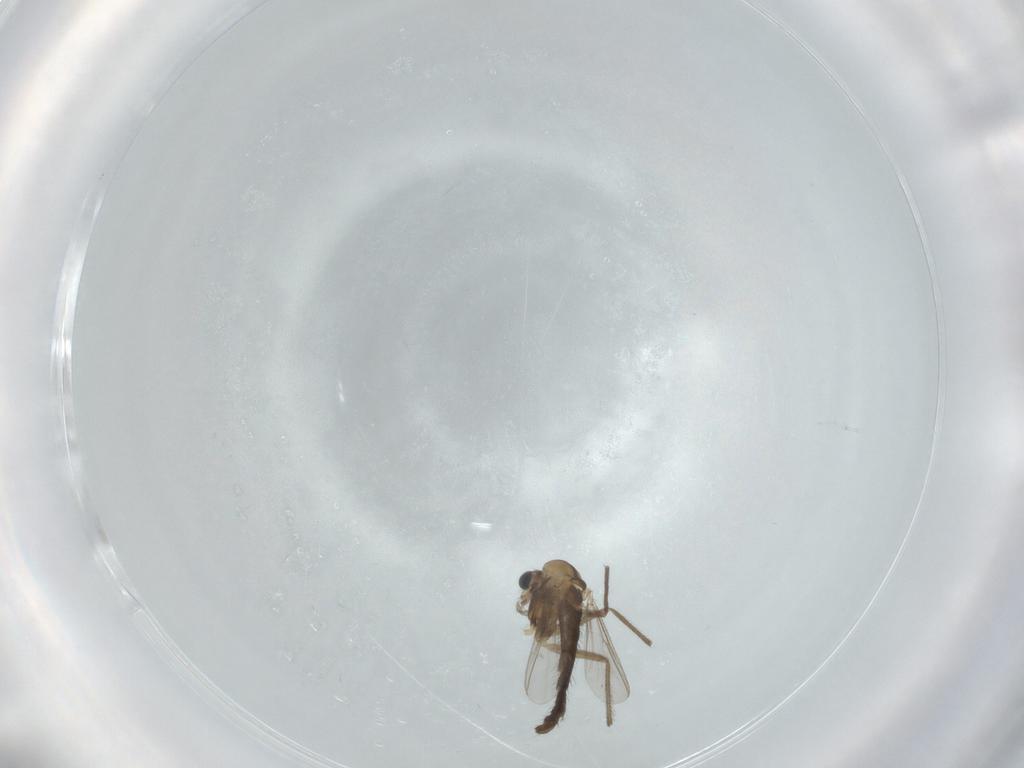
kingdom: Animalia
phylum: Arthropoda
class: Insecta
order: Diptera
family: Chironomidae
